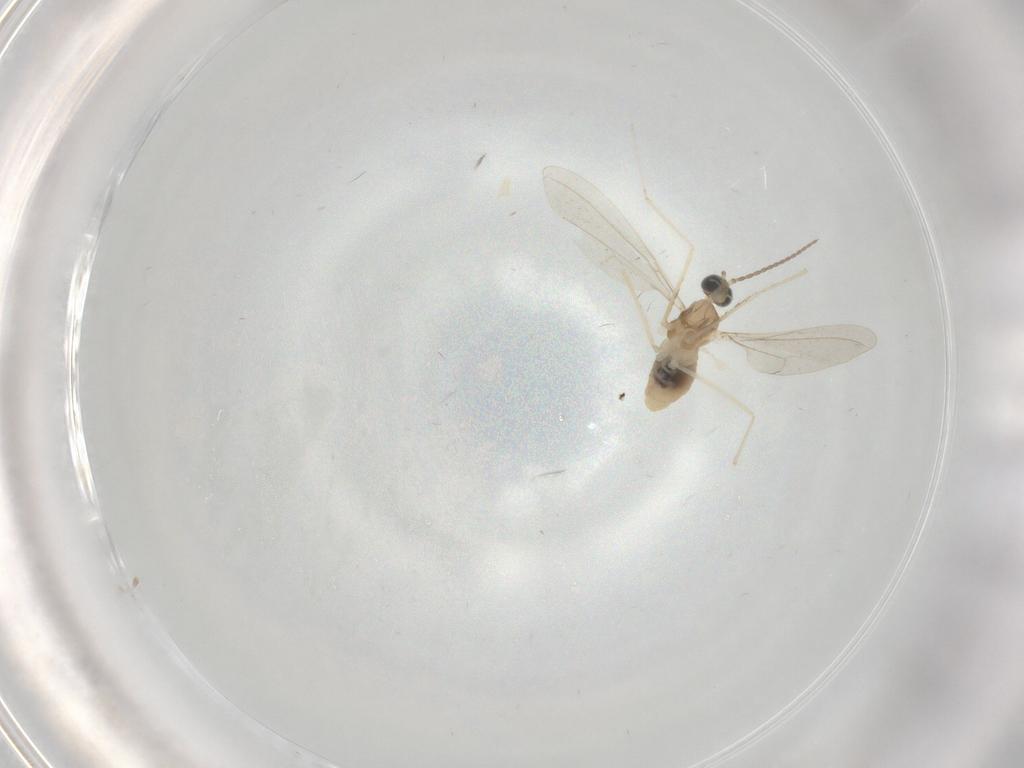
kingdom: Animalia
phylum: Arthropoda
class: Insecta
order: Diptera
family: Cecidomyiidae
